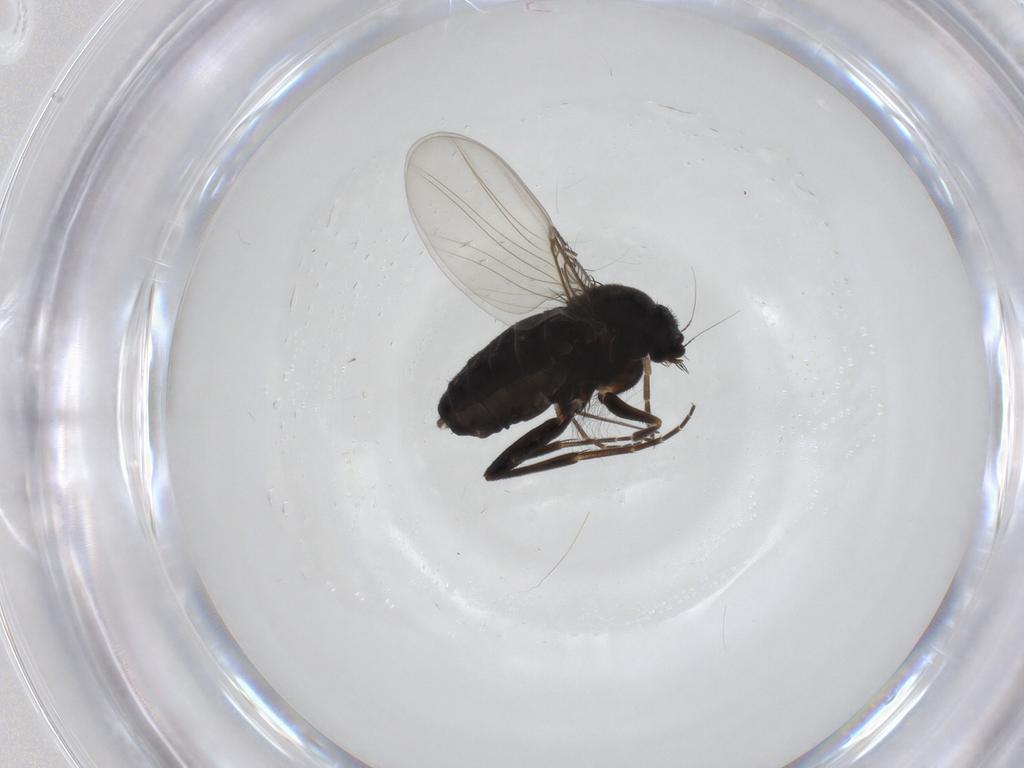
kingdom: Animalia
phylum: Arthropoda
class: Insecta
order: Diptera
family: Phoridae
